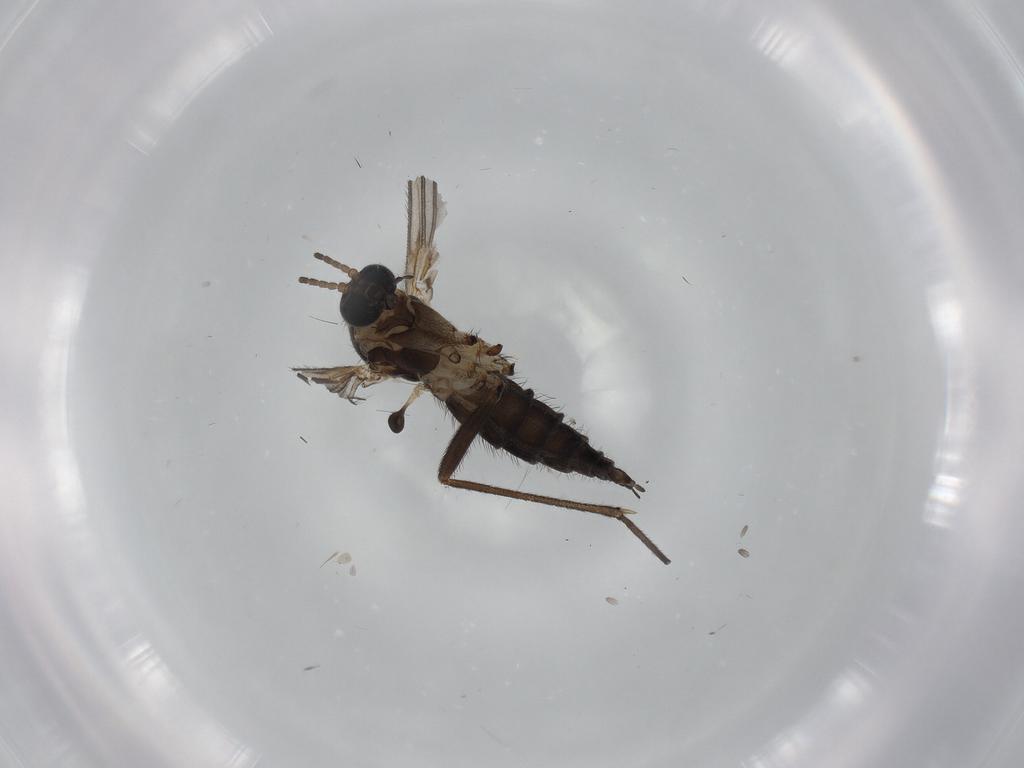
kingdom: Animalia
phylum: Arthropoda
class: Insecta
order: Diptera
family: Sciaridae
